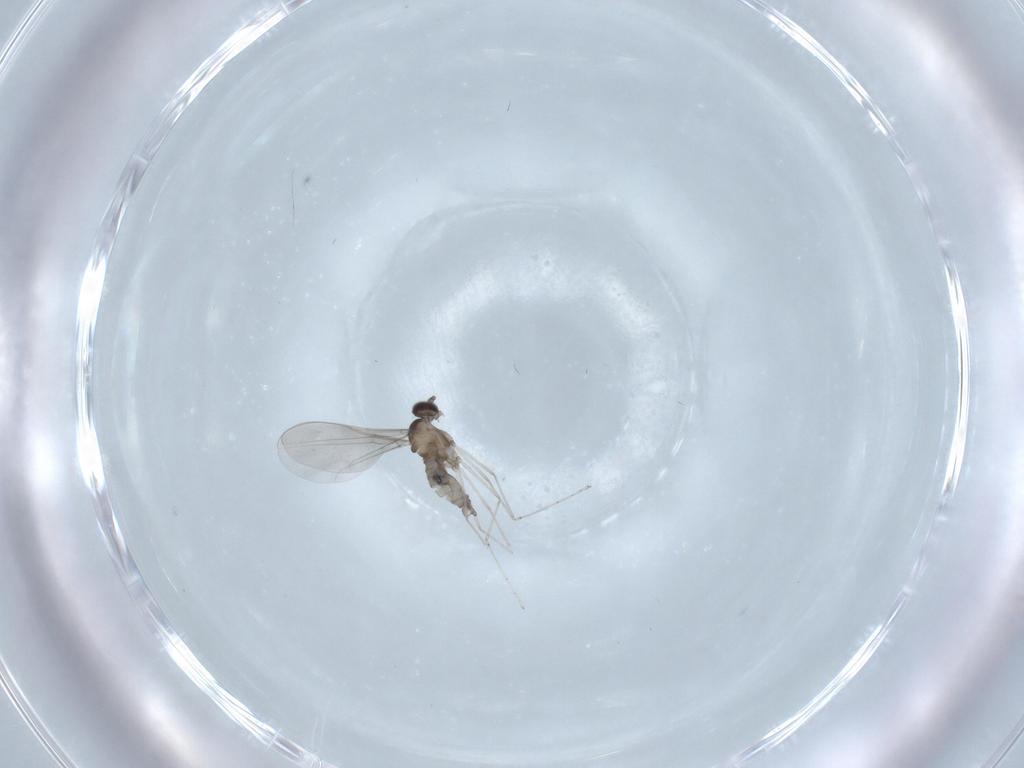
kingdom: Animalia
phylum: Arthropoda
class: Insecta
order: Diptera
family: Cecidomyiidae
